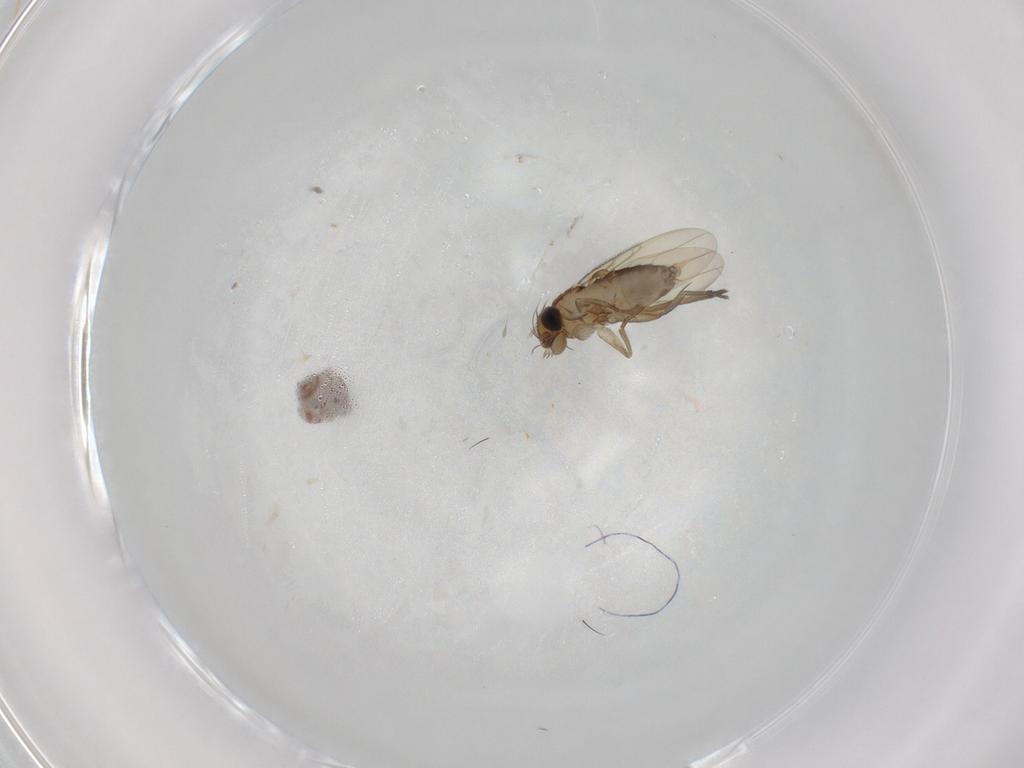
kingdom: Animalia
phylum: Arthropoda
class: Insecta
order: Diptera
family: Phoridae
